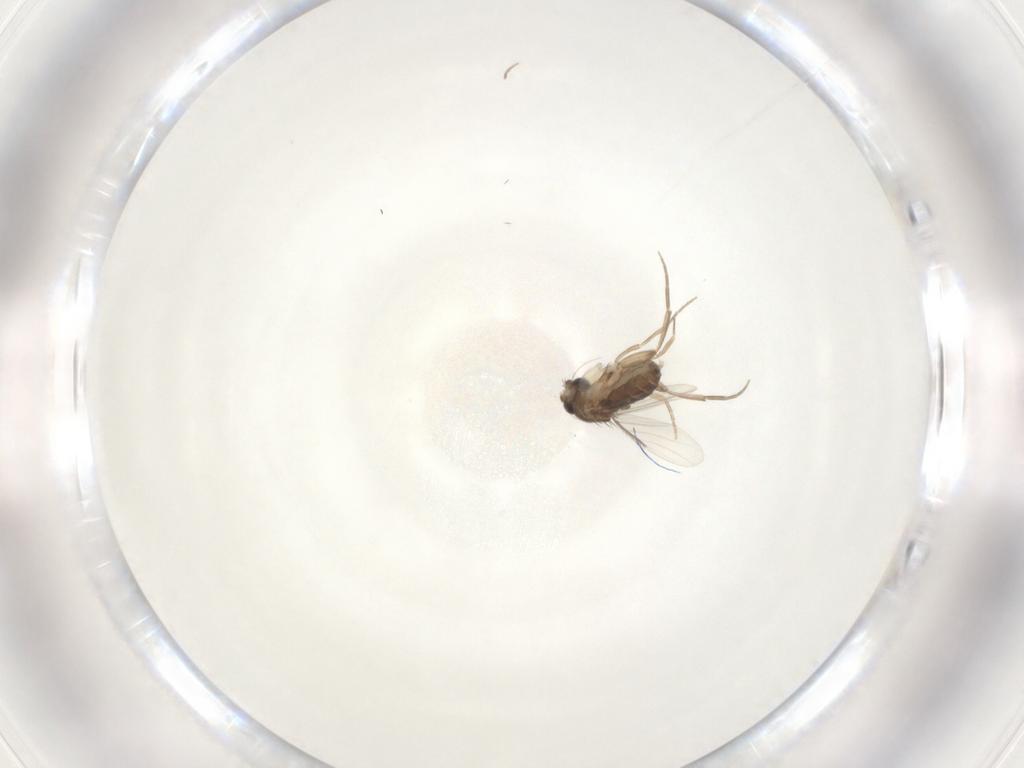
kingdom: Animalia
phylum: Arthropoda
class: Insecta
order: Diptera
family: Phoridae
